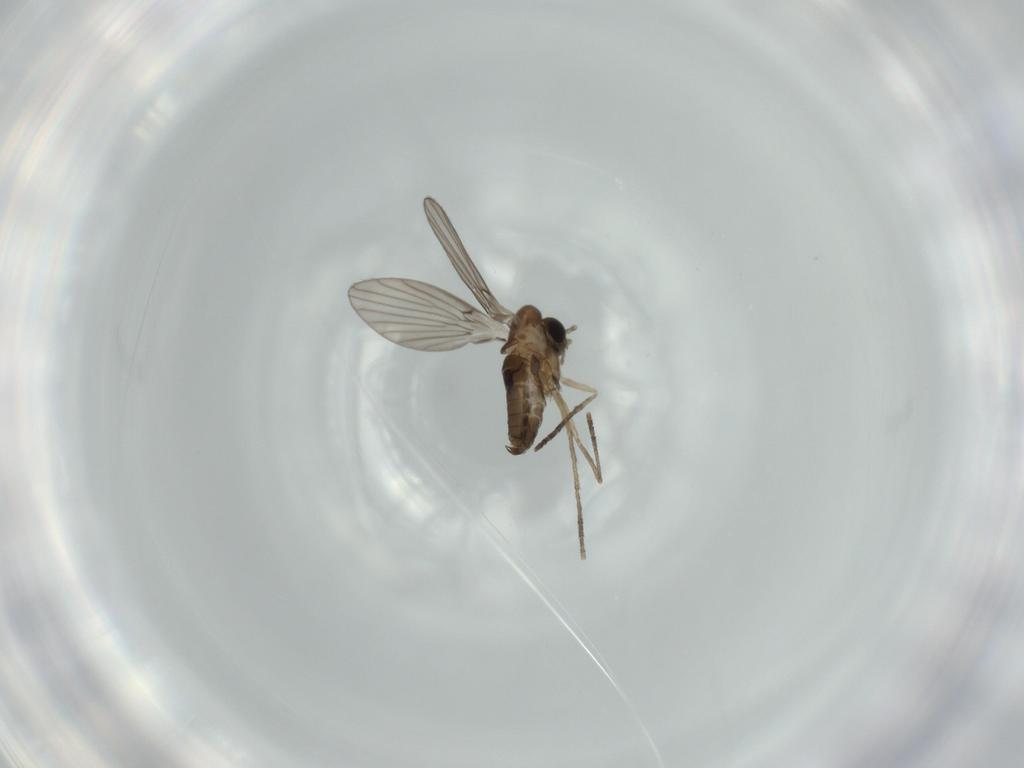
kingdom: Animalia
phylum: Arthropoda
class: Insecta
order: Diptera
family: Psychodidae
